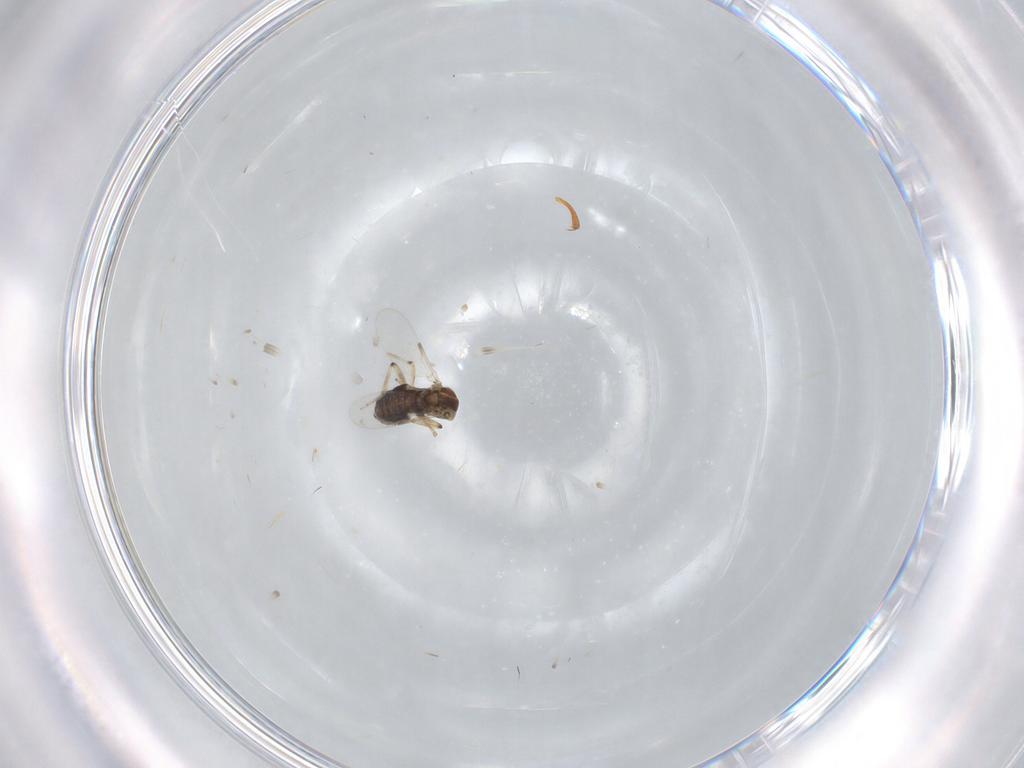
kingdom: Animalia
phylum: Arthropoda
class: Insecta
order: Diptera
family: Ceratopogonidae
